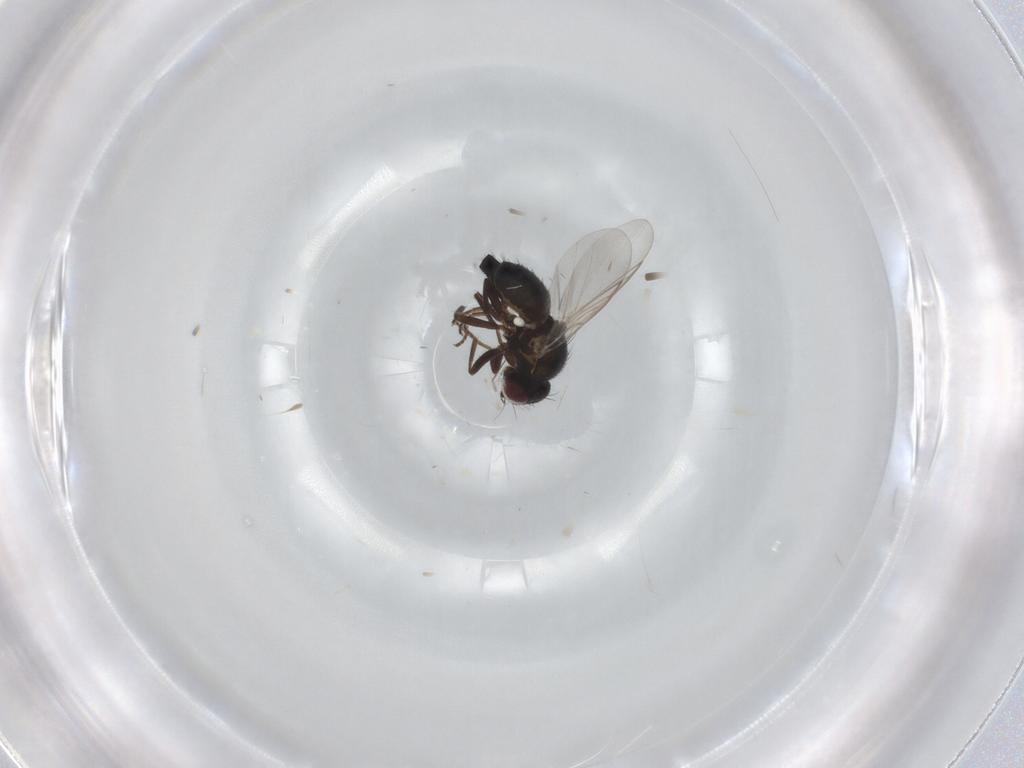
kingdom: Animalia
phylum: Arthropoda
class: Insecta
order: Diptera
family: Agromyzidae
